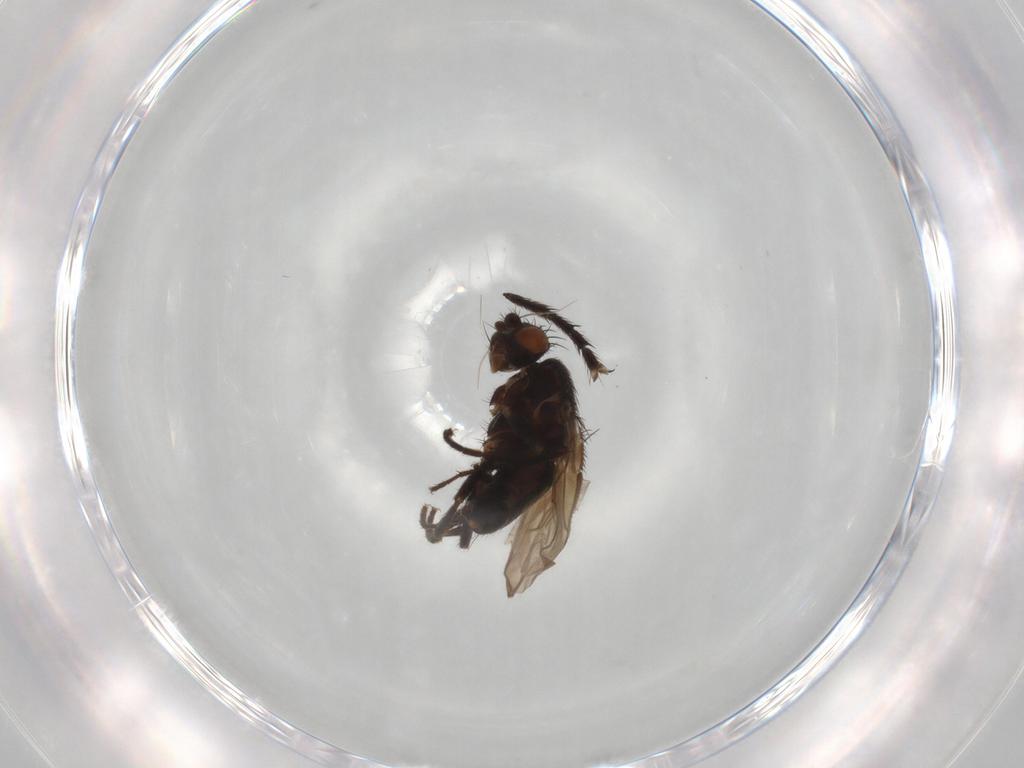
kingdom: Animalia
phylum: Arthropoda
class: Insecta
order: Diptera
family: Sphaeroceridae
